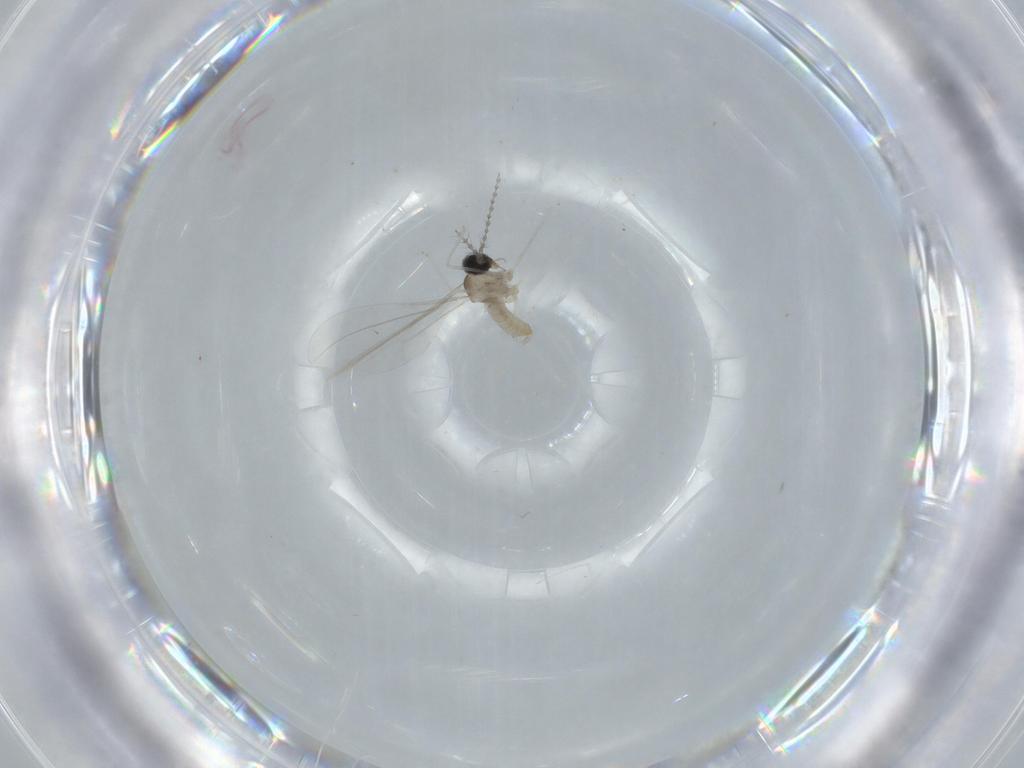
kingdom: Animalia
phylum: Arthropoda
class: Insecta
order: Diptera
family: Cecidomyiidae
